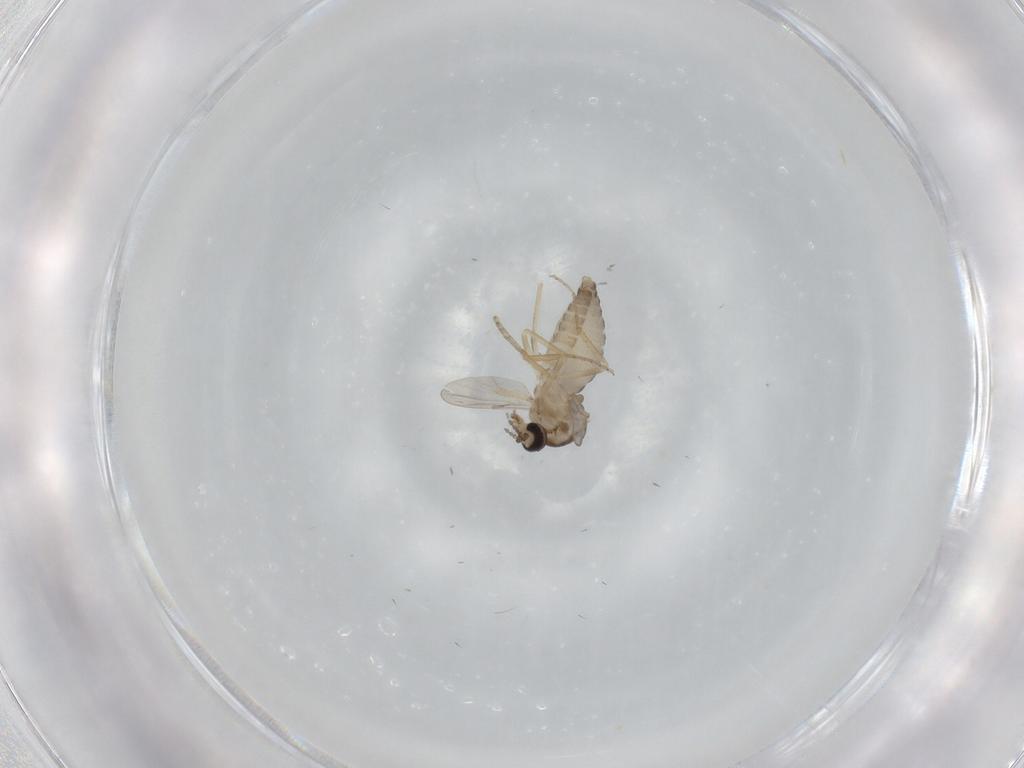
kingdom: Animalia
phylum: Arthropoda
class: Insecta
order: Diptera
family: Ceratopogonidae
